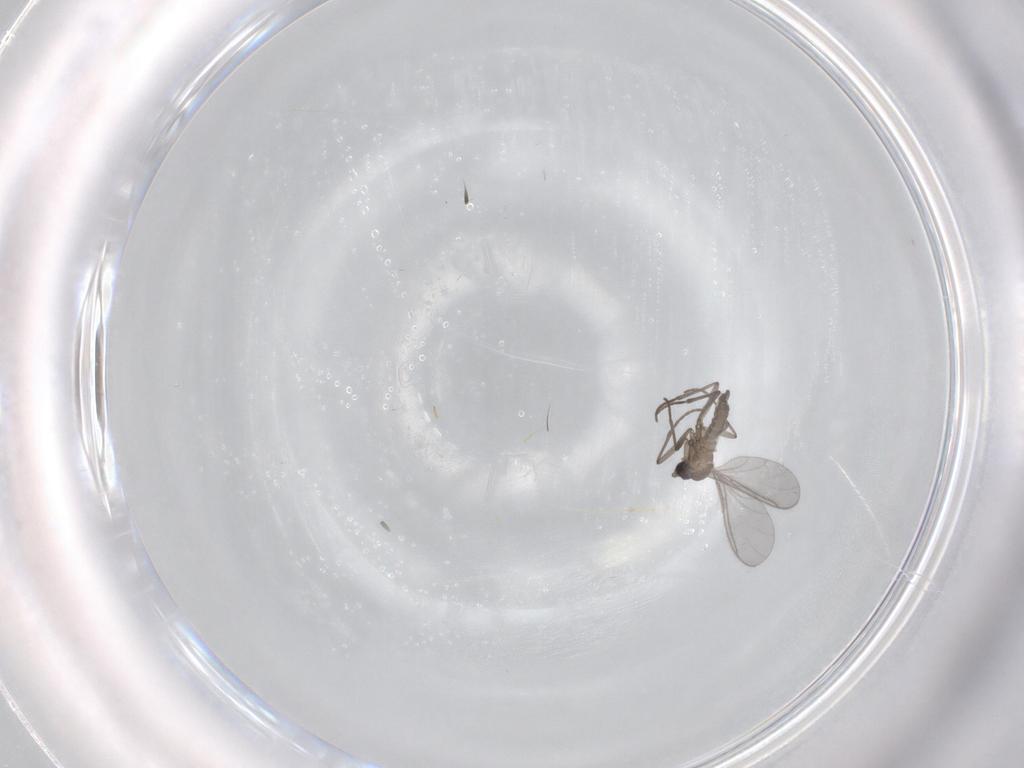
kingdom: Animalia
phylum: Arthropoda
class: Insecta
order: Diptera
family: Sciaridae
